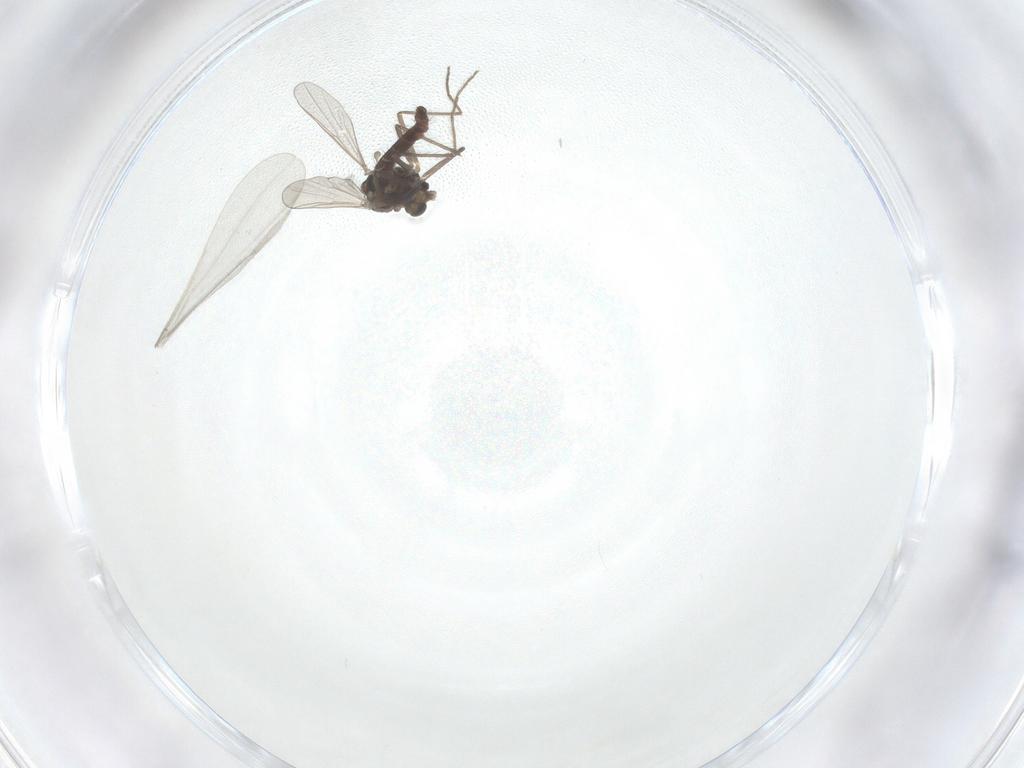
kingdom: Animalia
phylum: Arthropoda
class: Insecta
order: Diptera
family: Chironomidae
